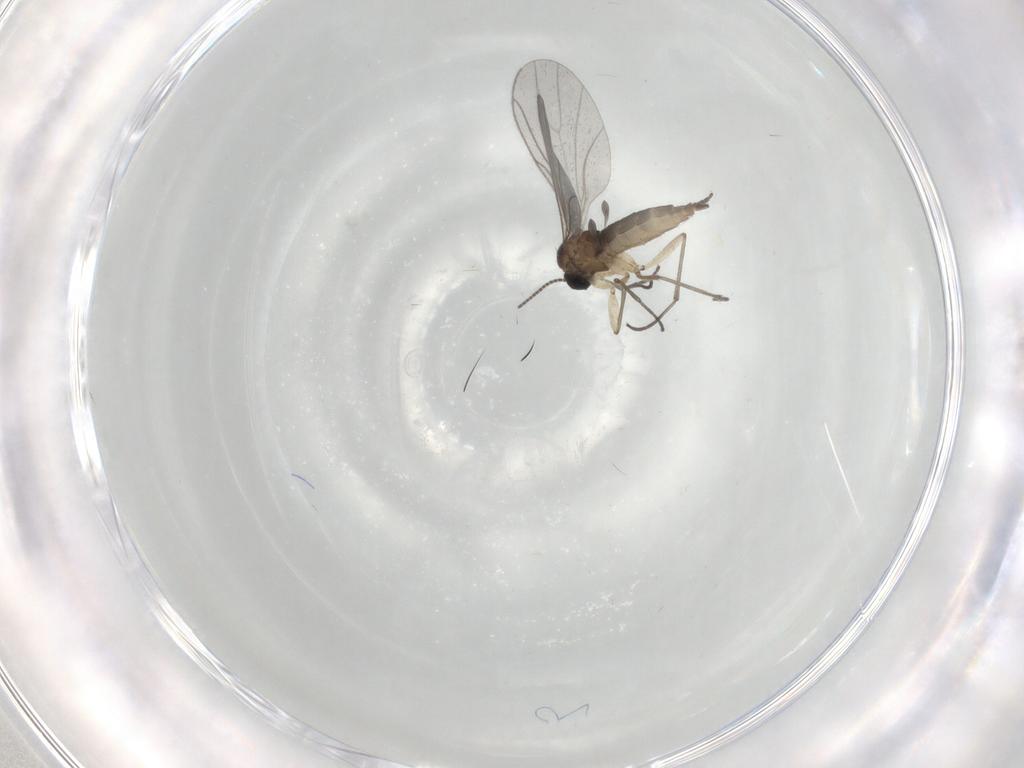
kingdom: Animalia
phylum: Arthropoda
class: Insecta
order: Diptera
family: Sciaridae
